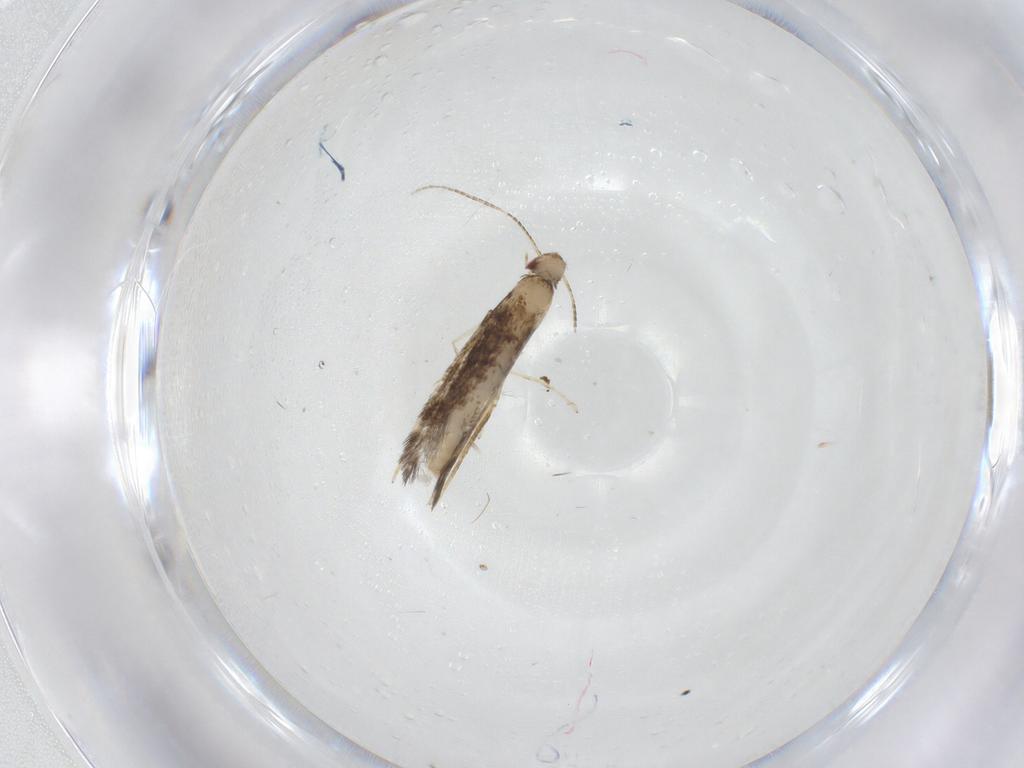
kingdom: Animalia
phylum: Arthropoda
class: Insecta
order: Lepidoptera
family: Gracillariidae
